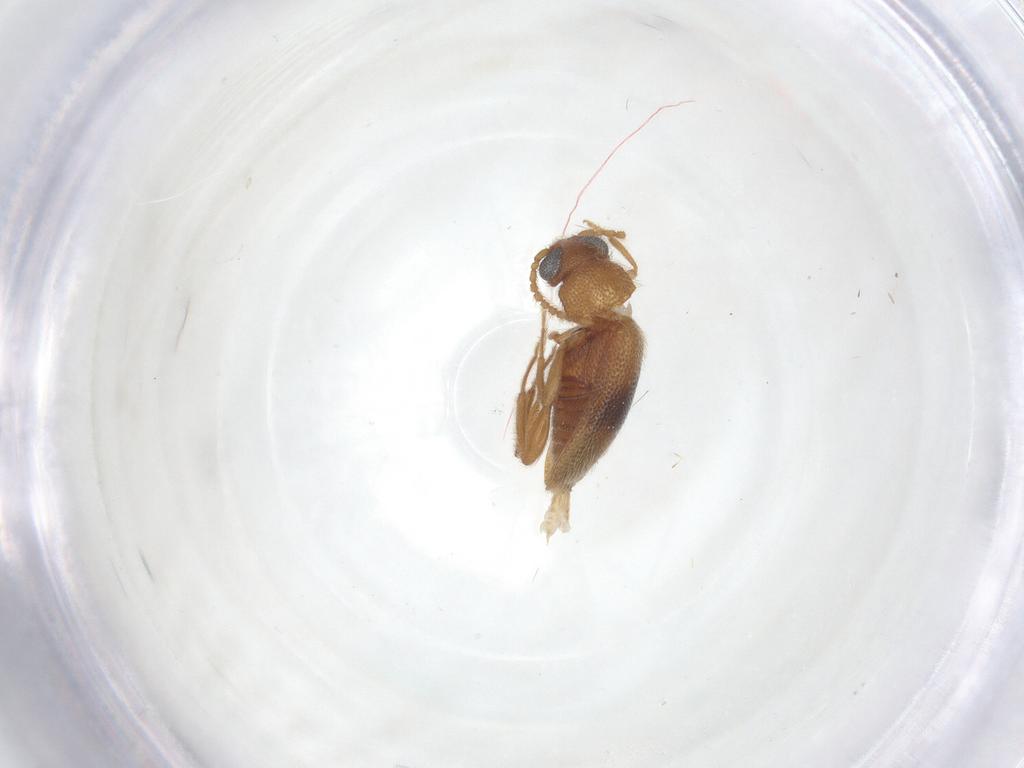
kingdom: Animalia
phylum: Arthropoda
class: Insecta
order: Coleoptera
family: Aderidae
